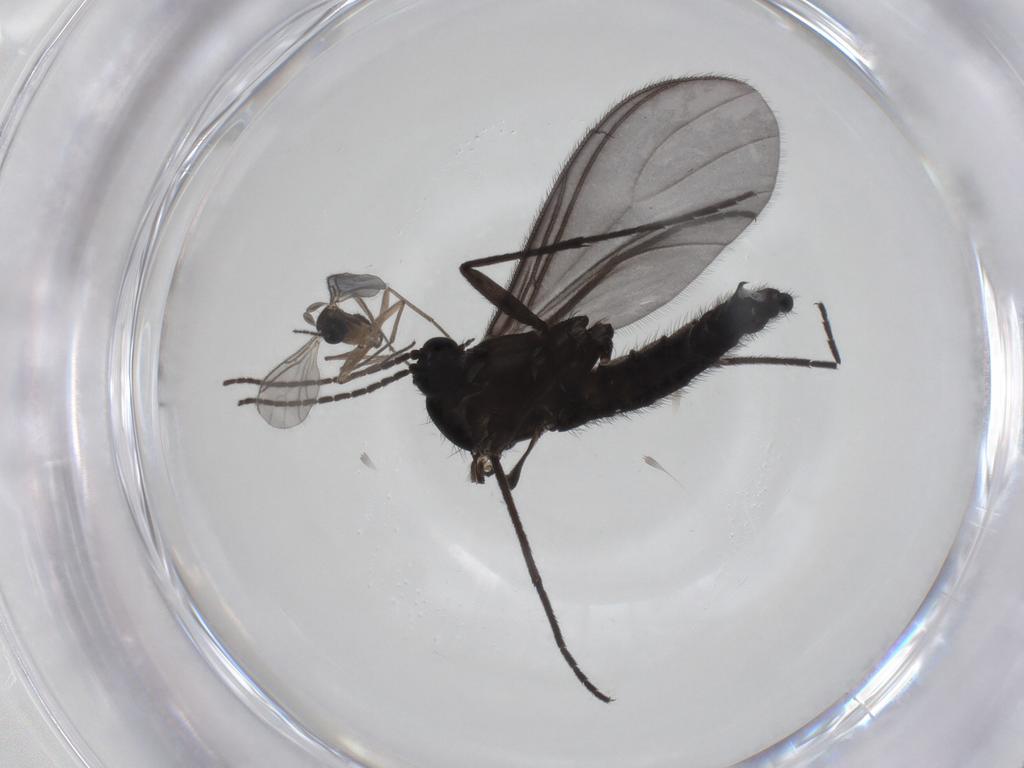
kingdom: Animalia
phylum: Arthropoda
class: Insecta
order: Diptera
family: Sciaridae
